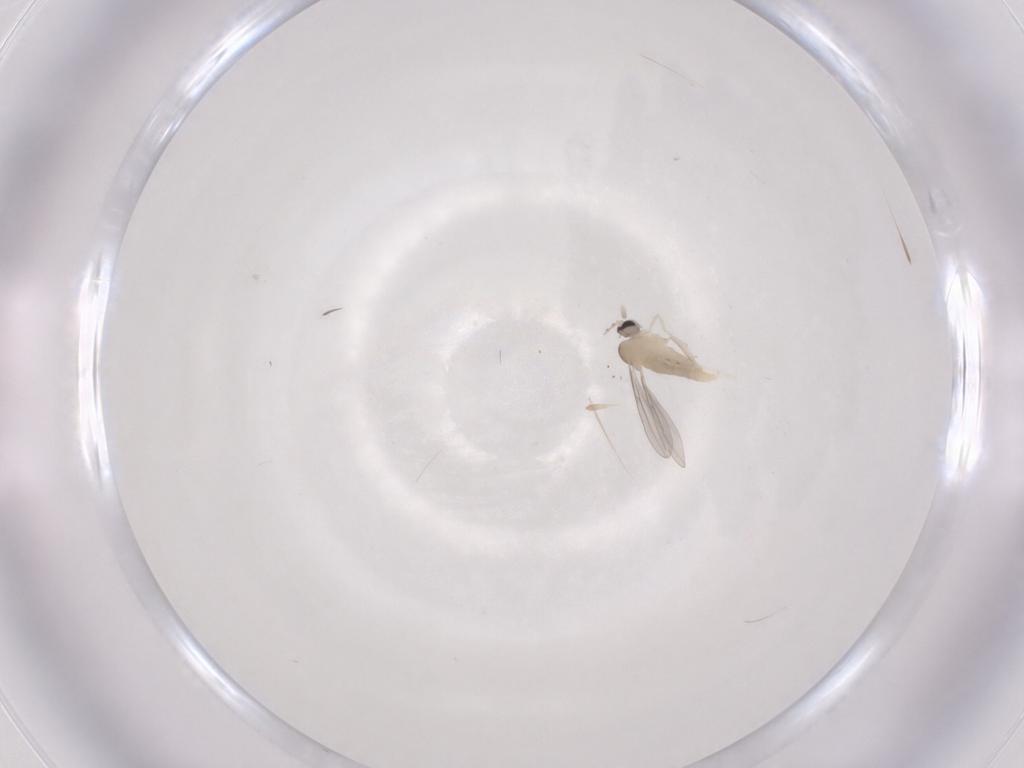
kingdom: Animalia
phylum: Arthropoda
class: Insecta
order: Diptera
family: Cecidomyiidae
